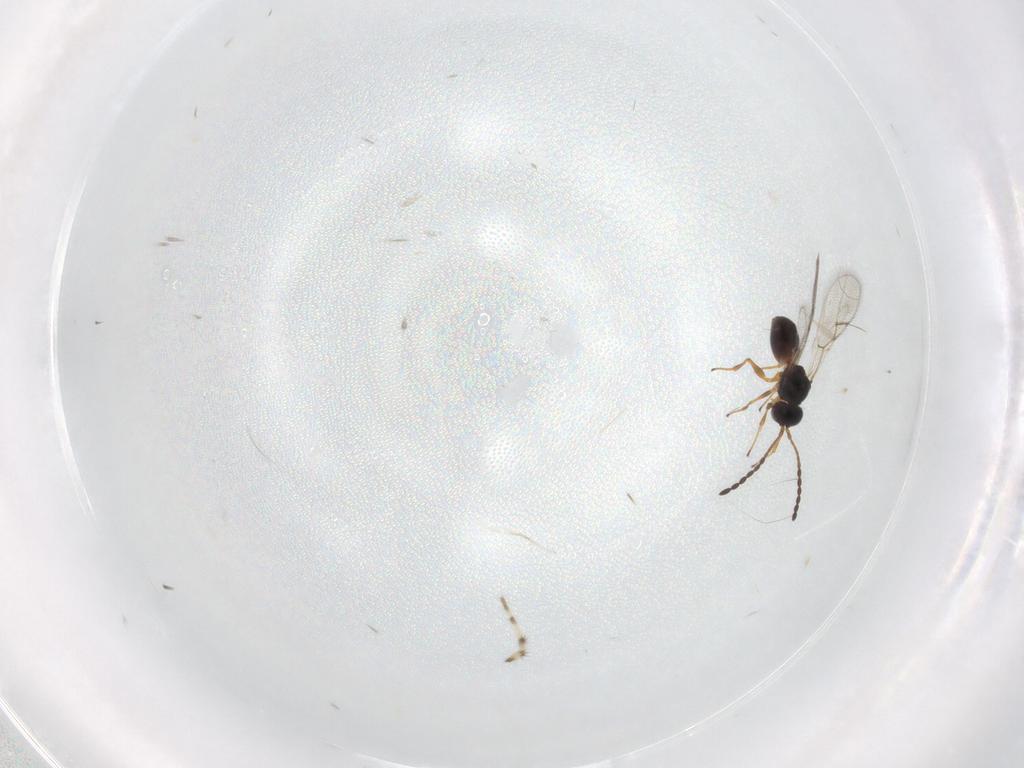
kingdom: Animalia
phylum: Arthropoda
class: Insecta
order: Hymenoptera
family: Figitidae
